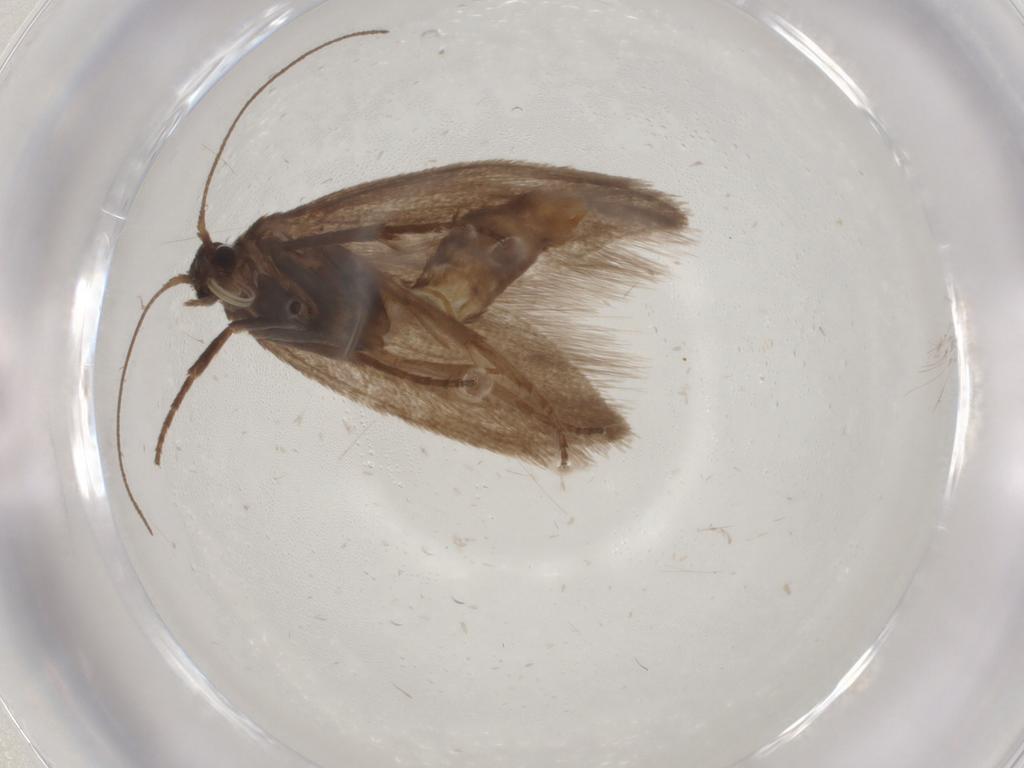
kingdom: Animalia
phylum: Arthropoda
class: Insecta
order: Lepidoptera
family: Limacodidae
